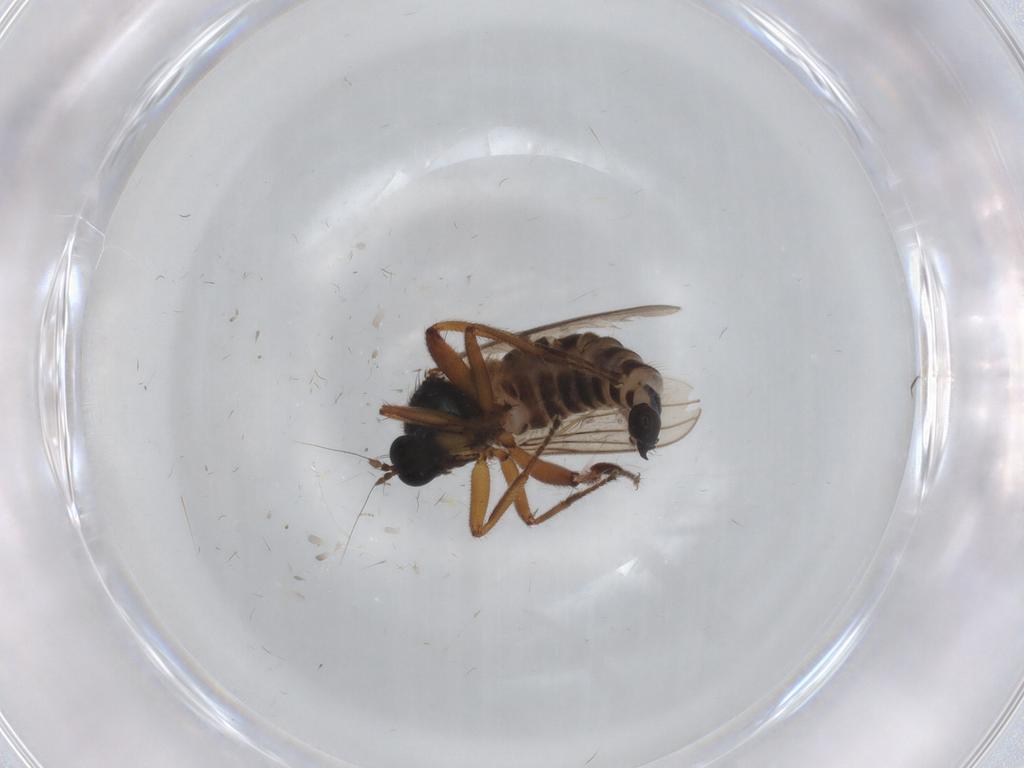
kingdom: Animalia
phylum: Arthropoda
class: Insecta
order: Diptera
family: Hybotidae
